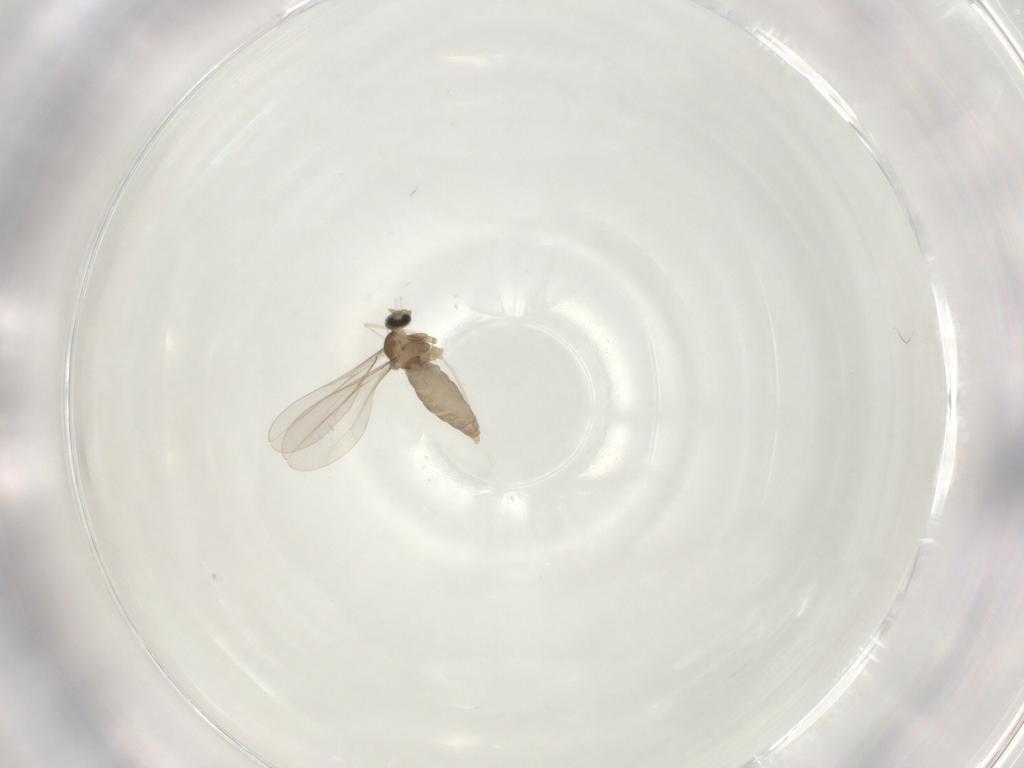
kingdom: Animalia
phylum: Arthropoda
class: Insecta
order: Diptera
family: Cecidomyiidae
